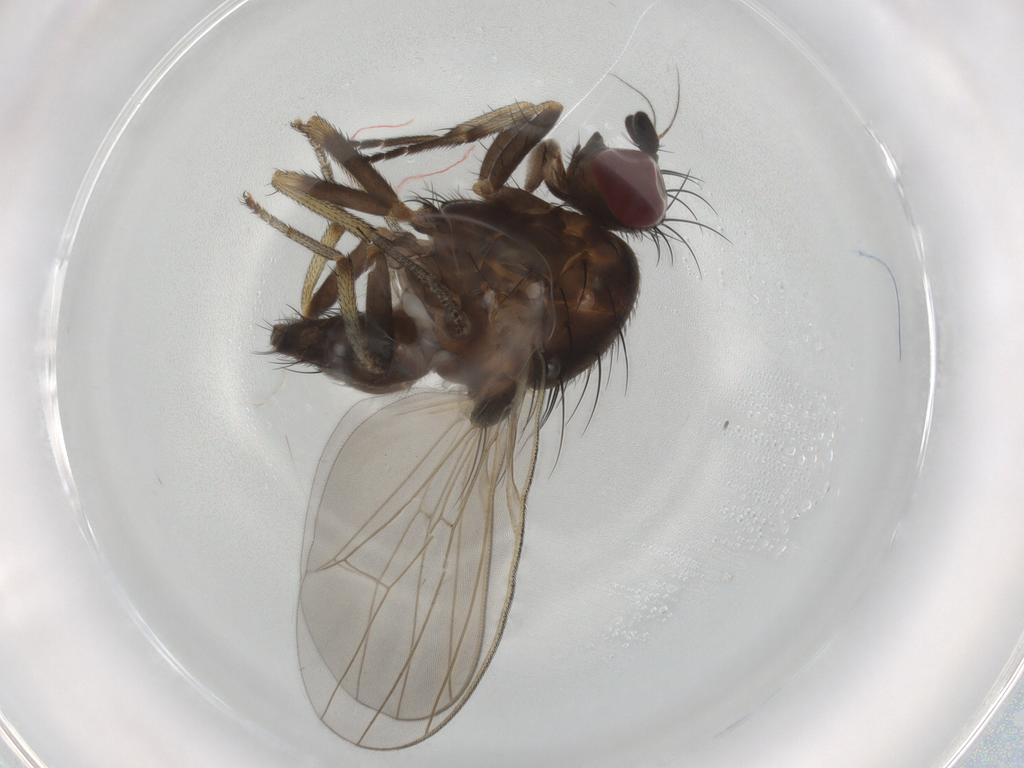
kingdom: Animalia
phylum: Arthropoda
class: Insecta
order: Diptera
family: Lauxaniidae
